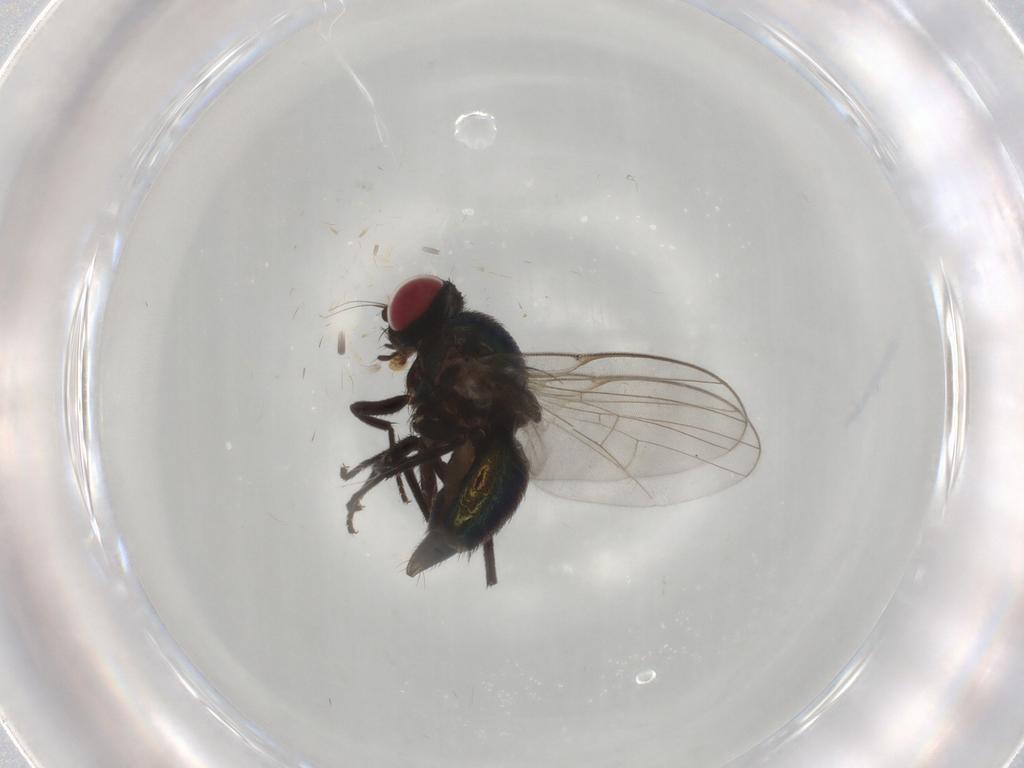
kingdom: Animalia
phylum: Arthropoda
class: Insecta
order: Diptera
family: Agromyzidae
